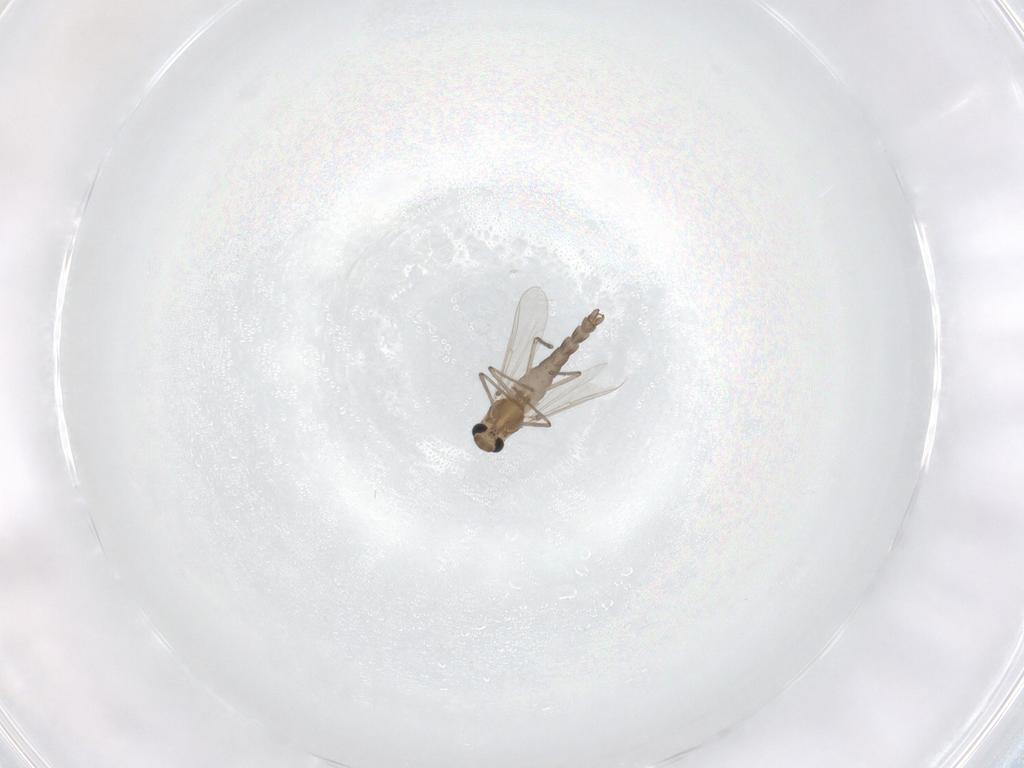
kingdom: Animalia
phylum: Arthropoda
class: Insecta
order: Diptera
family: Chironomidae
